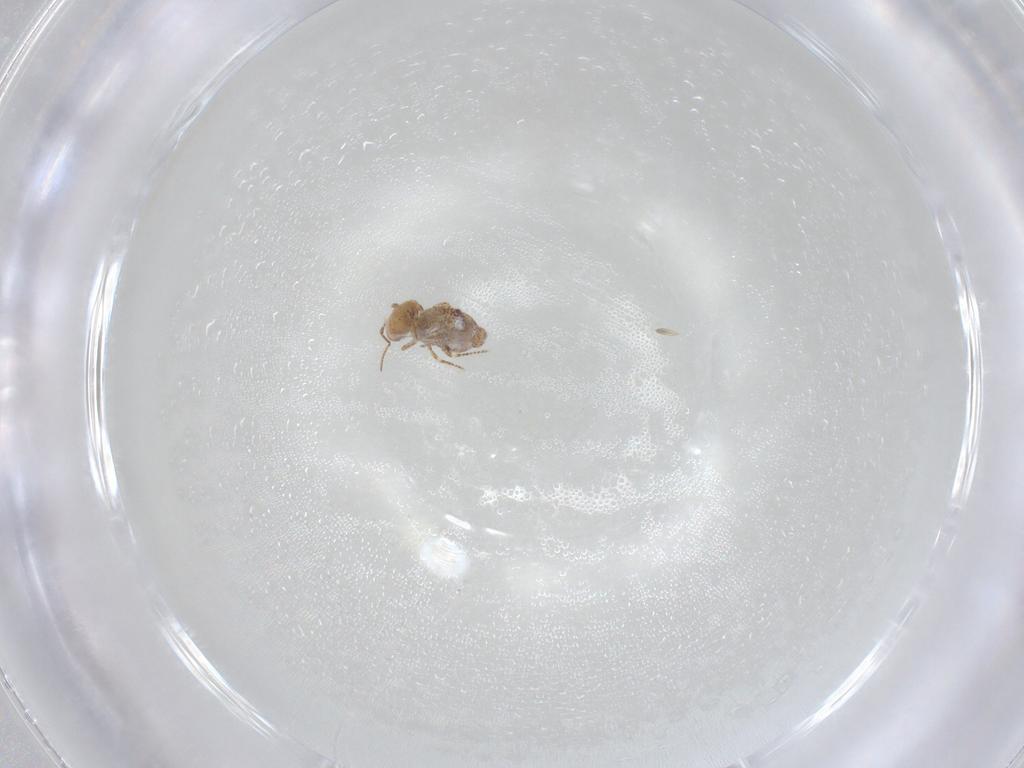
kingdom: Animalia
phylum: Arthropoda
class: Collembola
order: Symphypleona
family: Bourletiellidae
